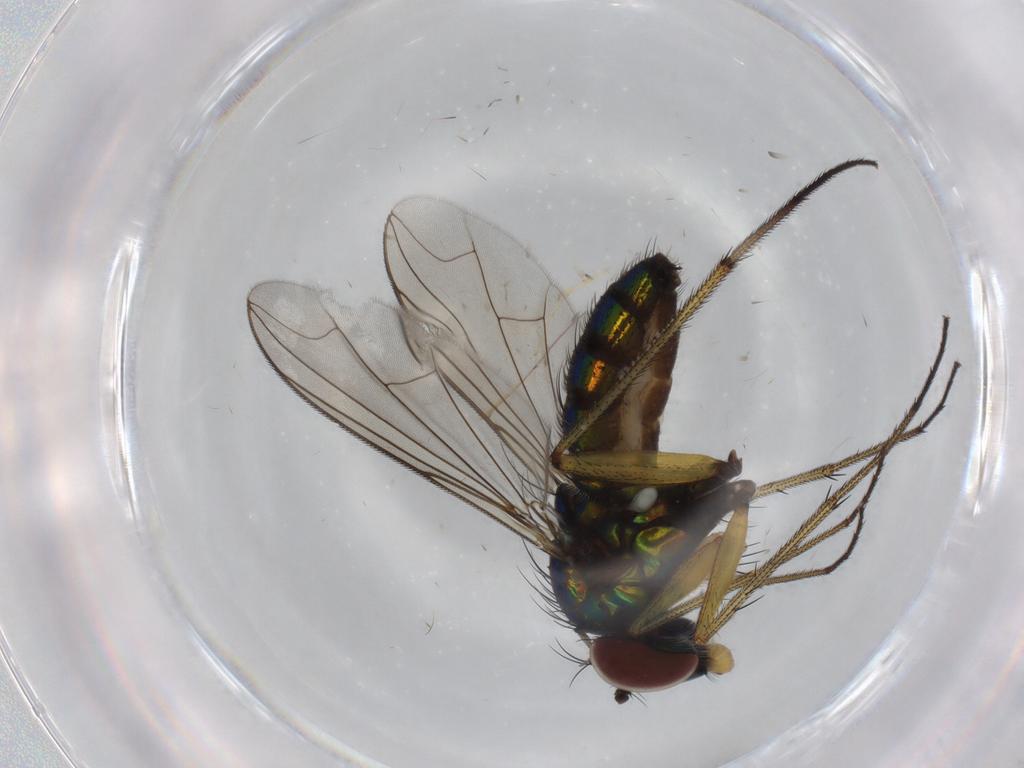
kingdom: Animalia
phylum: Arthropoda
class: Insecta
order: Diptera
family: Dolichopodidae
